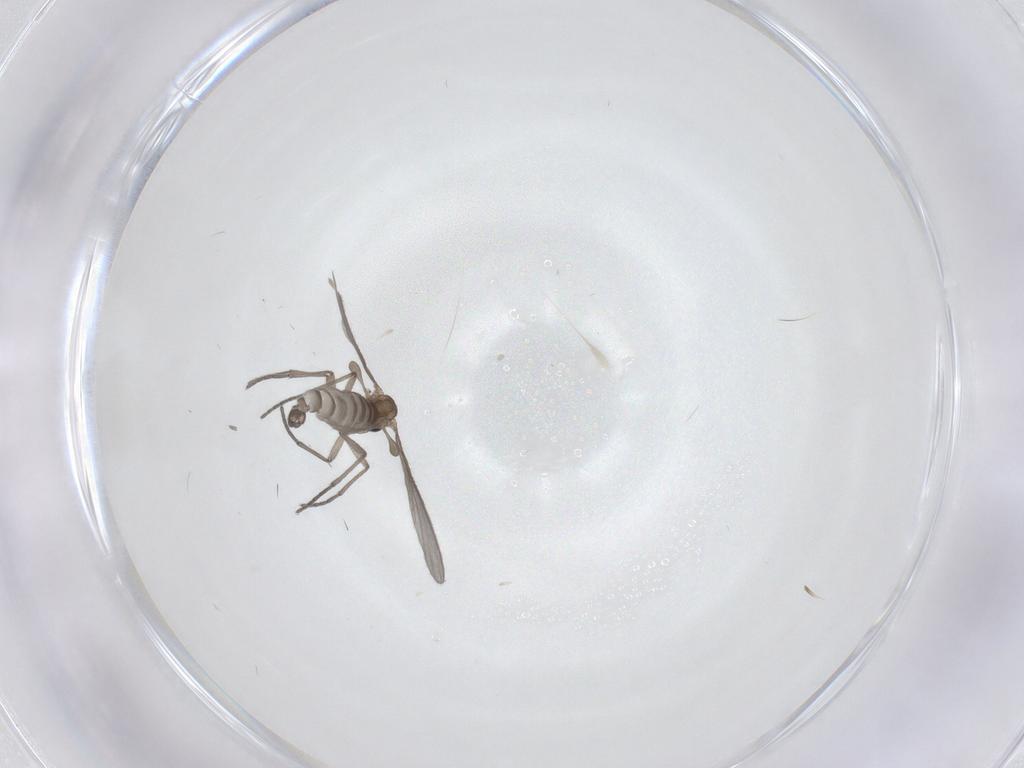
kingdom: Animalia
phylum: Arthropoda
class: Insecta
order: Diptera
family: Sciaridae
